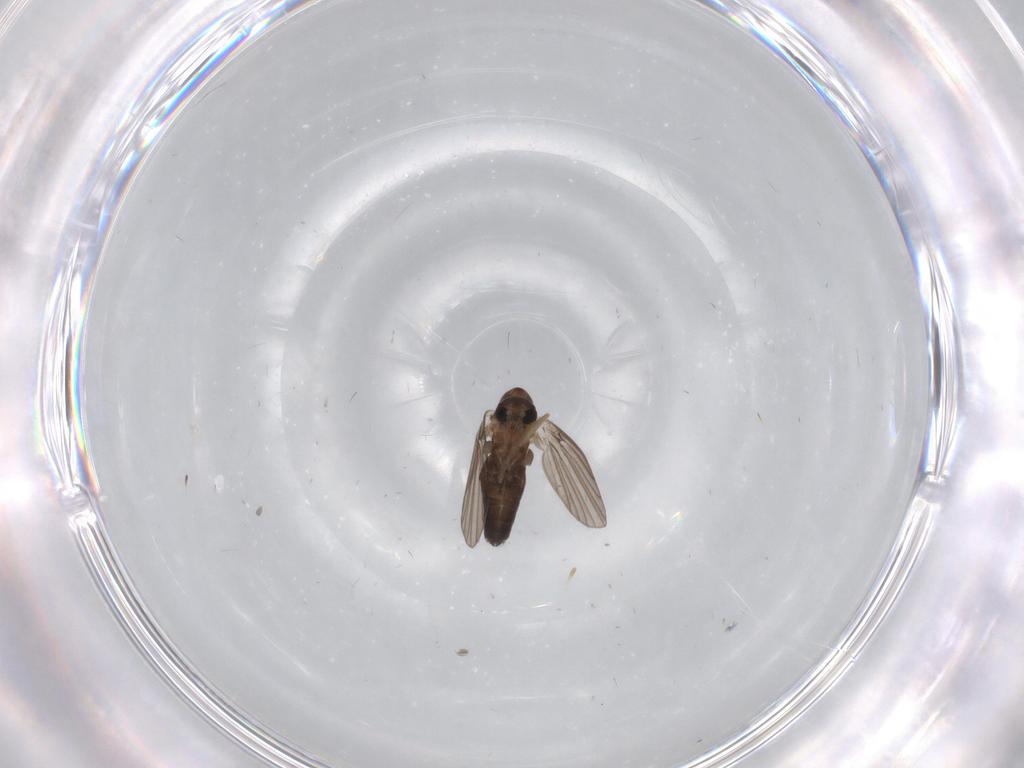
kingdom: Animalia
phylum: Arthropoda
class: Insecta
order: Diptera
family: Psychodidae
